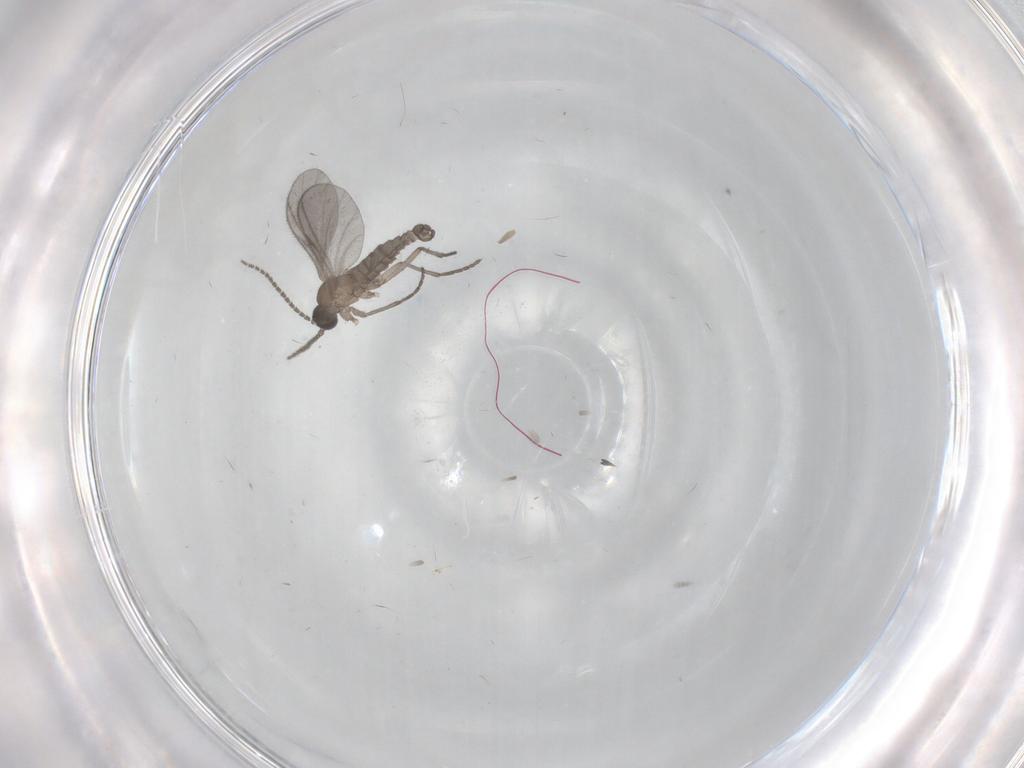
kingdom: Animalia
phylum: Arthropoda
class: Insecta
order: Diptera
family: Sciaridae
